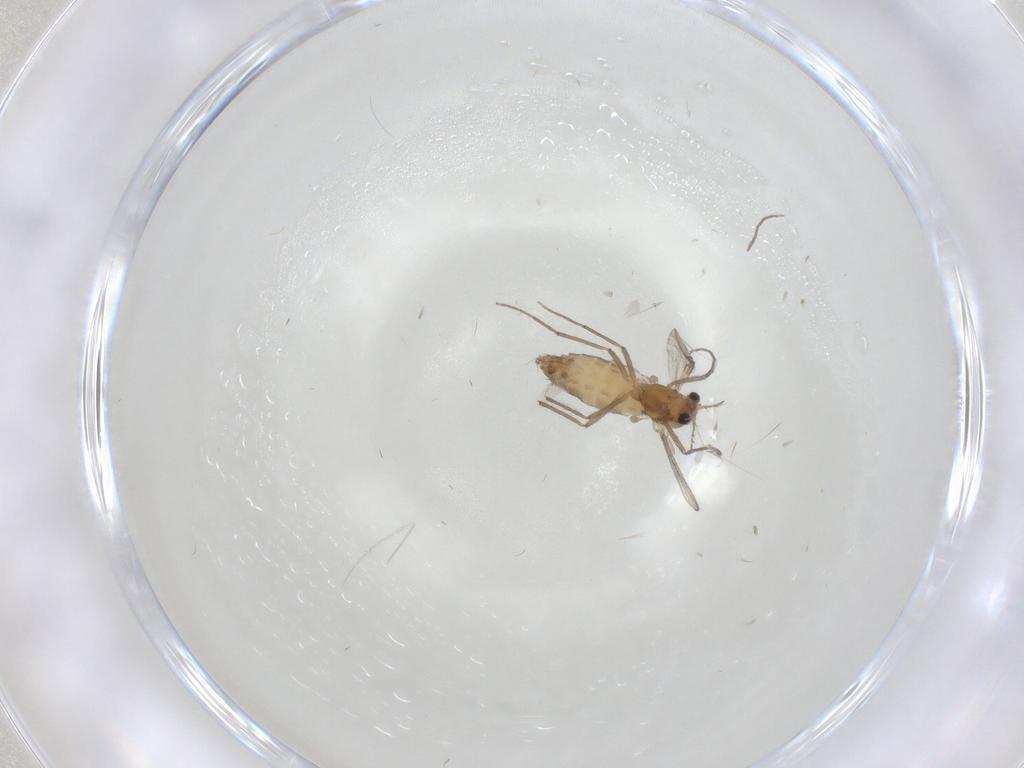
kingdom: Animalia
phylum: Arthropoda
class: Insecta
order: Diptera
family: Chironomidae
